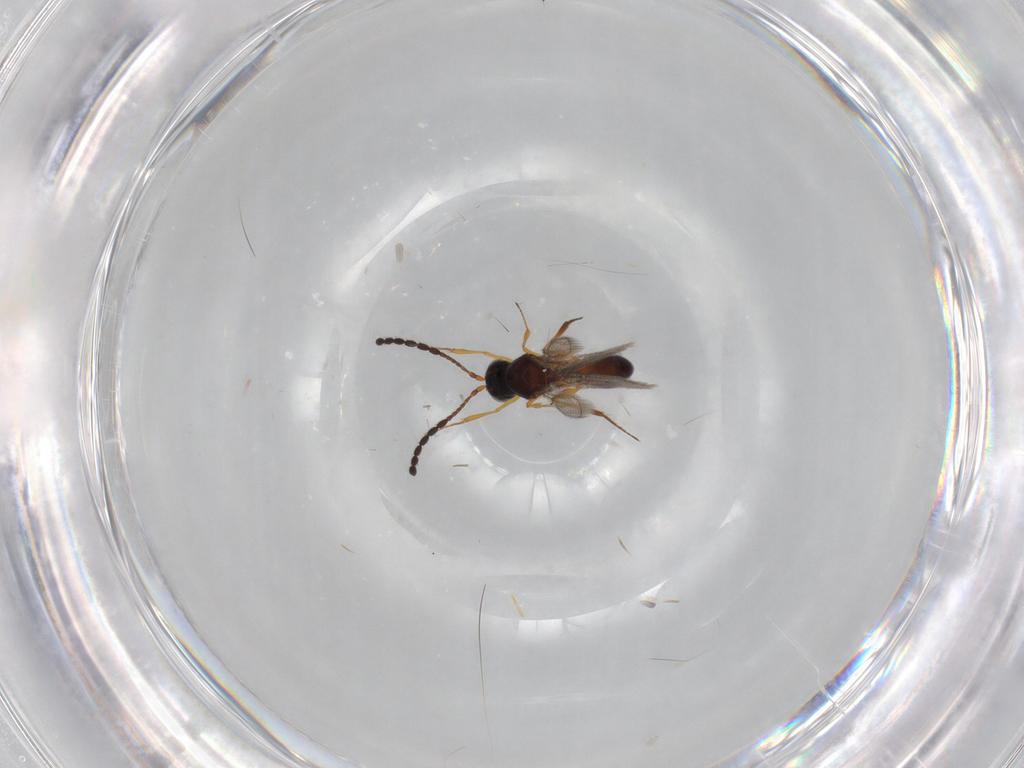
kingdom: Animalia
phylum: Arthropoda
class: Insecta
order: Hymenoptera
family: Figitidae
